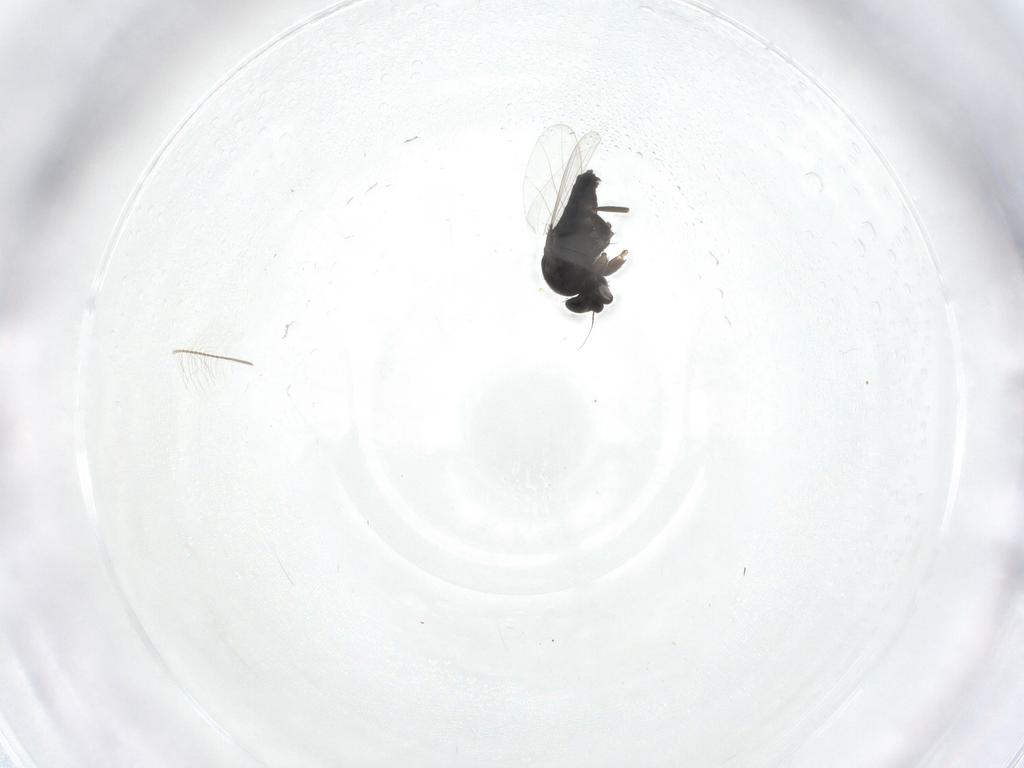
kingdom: Animalia
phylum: Arthropoda
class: Insecta
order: Diptera
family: Phoridae
